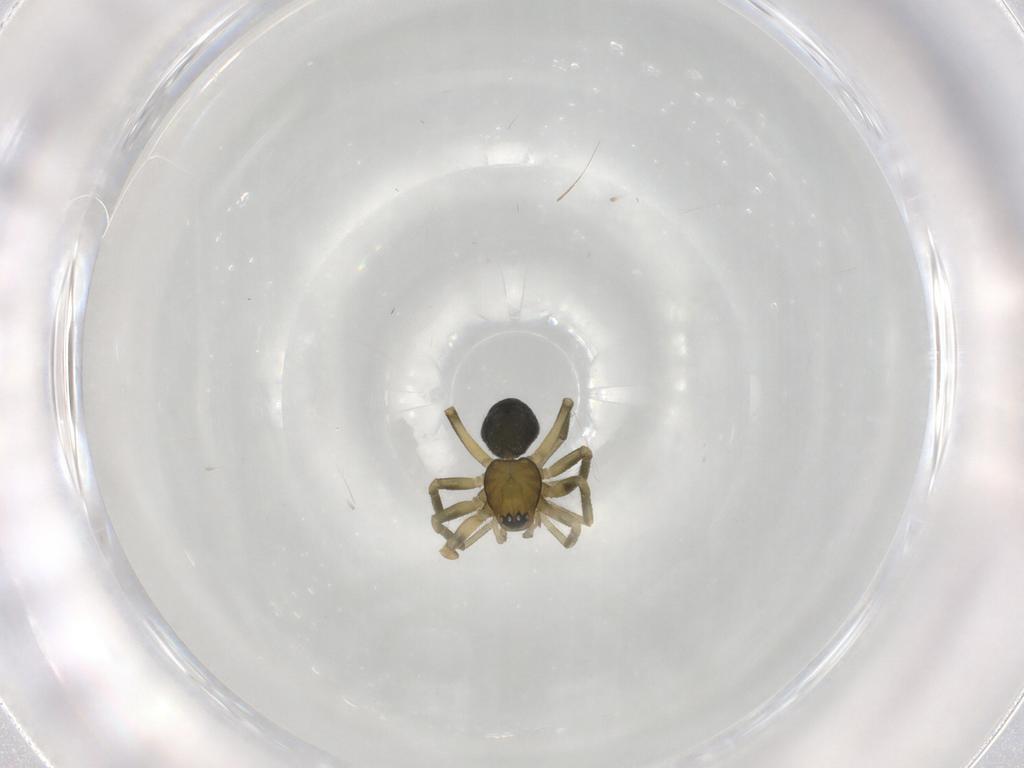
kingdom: Animalia
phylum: Arthropoda
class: Arachnida
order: Araneae
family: Linyphiidae
